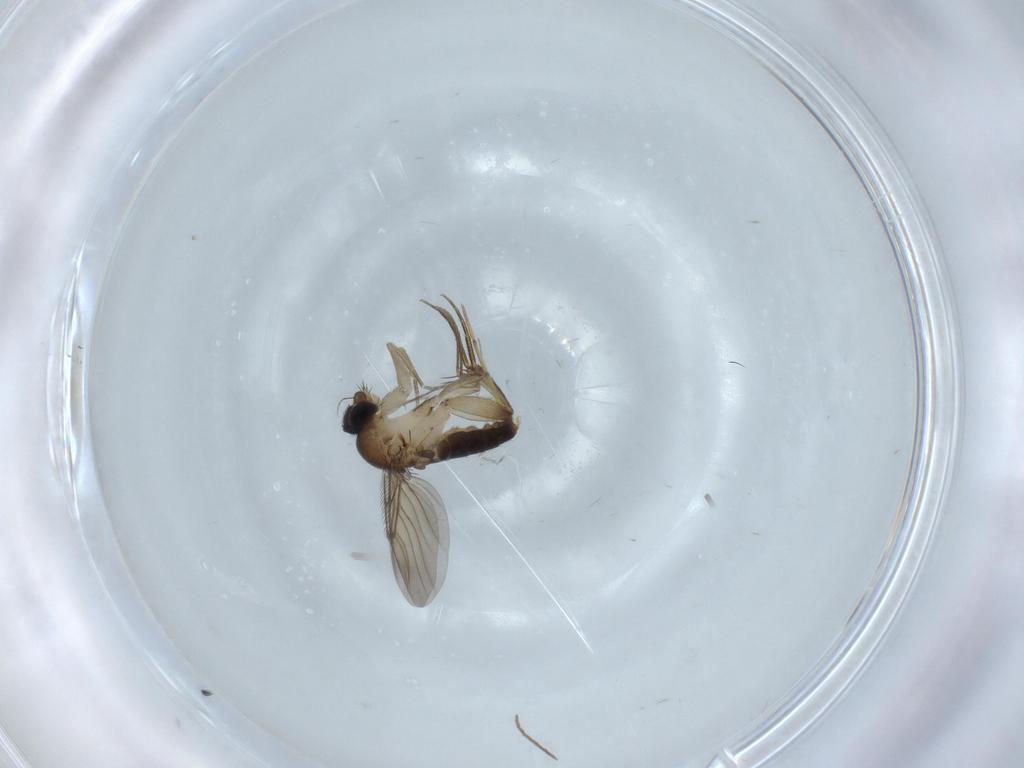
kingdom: Animalia
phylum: Arthropoda
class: Insecta
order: Diptera
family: Phoridae
